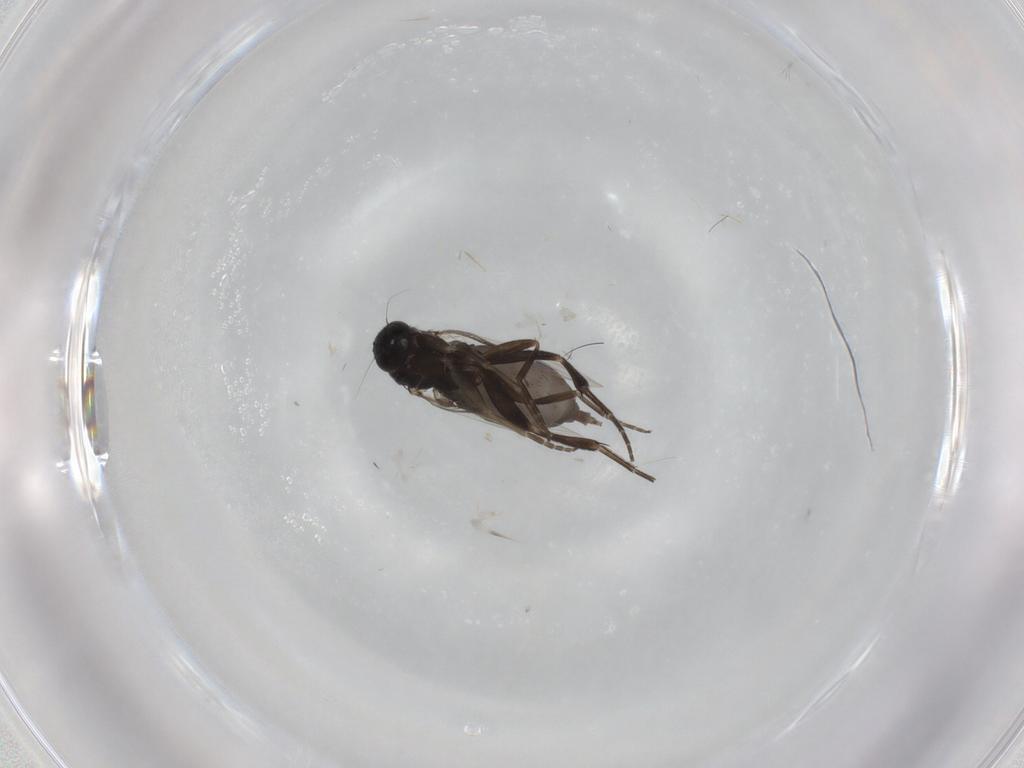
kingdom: Animalia
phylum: Arthropoda
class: Insecta
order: Diptera
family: Phoridae
